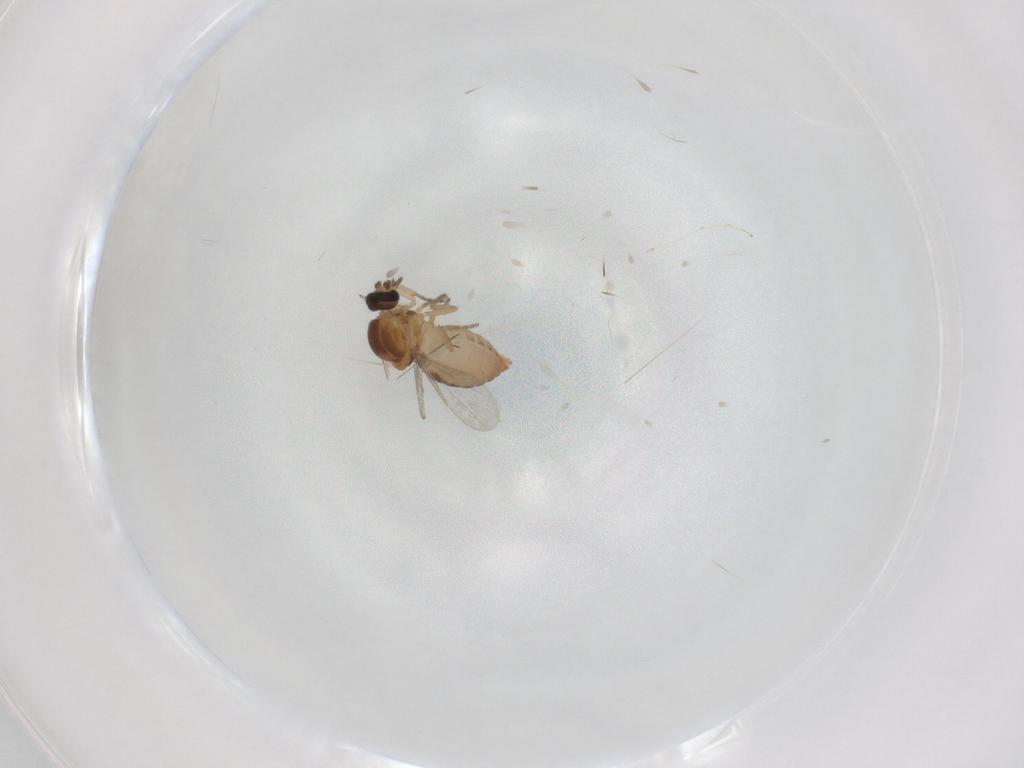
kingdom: Animalia
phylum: Arthropoda
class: Insecta
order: Diptera
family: Ceratopogonidae
